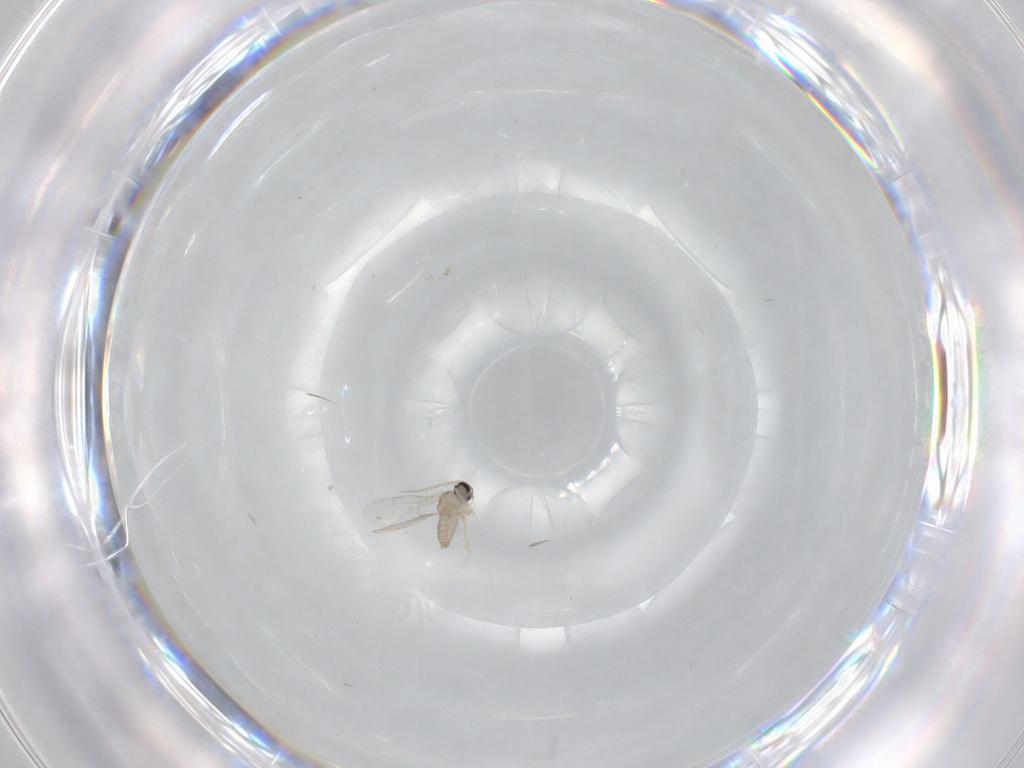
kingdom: Animalia
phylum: Arthropoda
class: Insecta
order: Diptera
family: Cecidomyiidae
